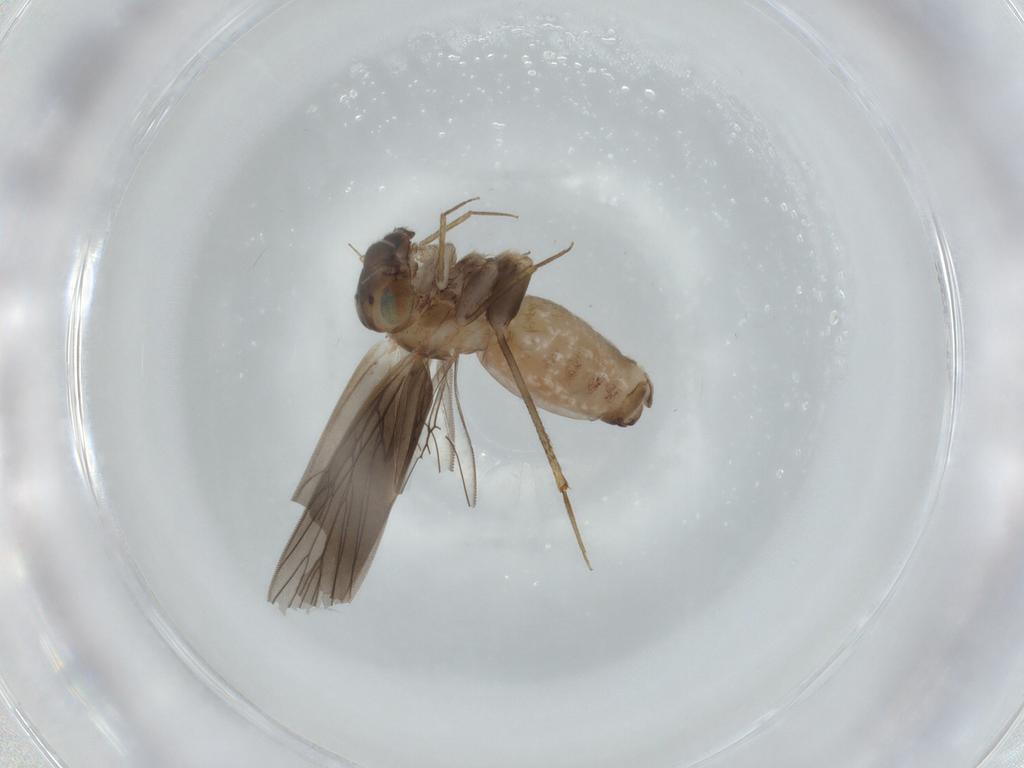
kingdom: Animalia
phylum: Arthropoda
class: Insecta
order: Psocodea
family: Lepidopsocidae
